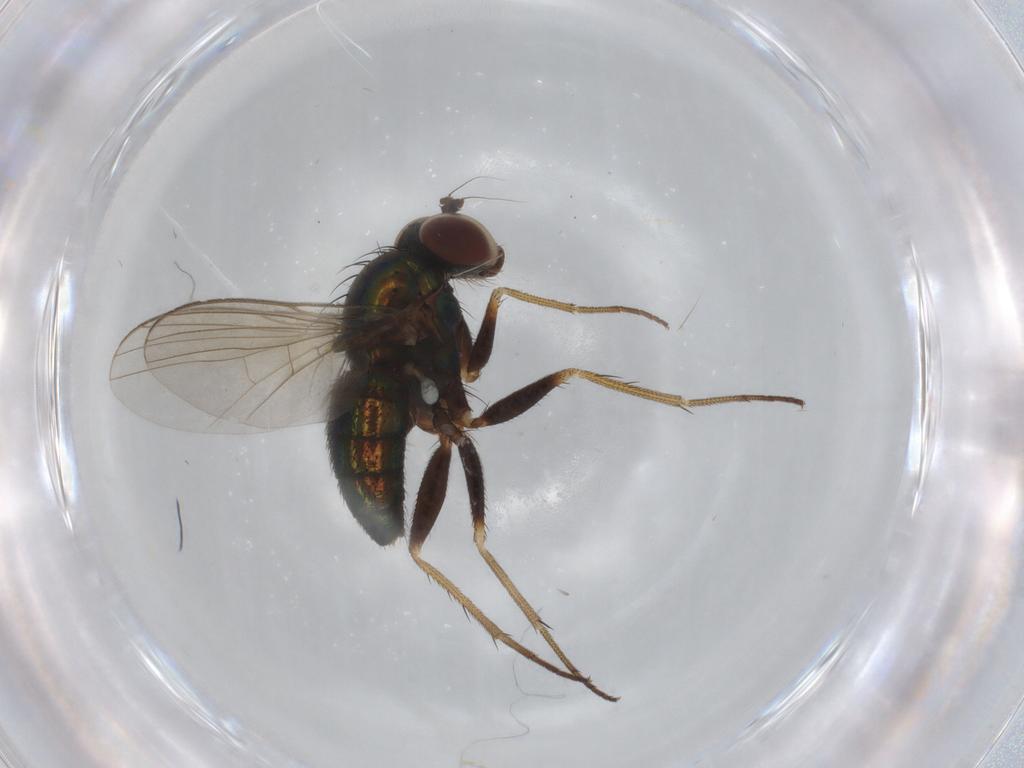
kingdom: Animalia
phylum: Arthropoda
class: Insecta
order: Diptera
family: Dolichopodidae
